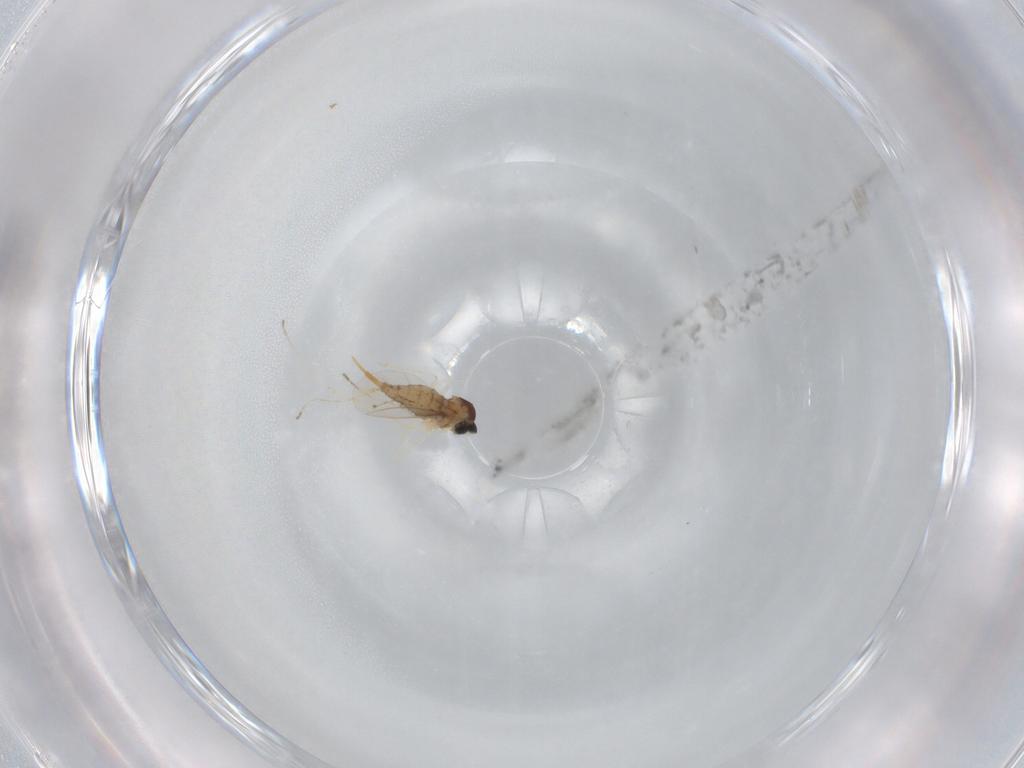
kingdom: Animalia
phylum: Arthropoda
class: Insecta
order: Diptera
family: Cecidomyiidae
